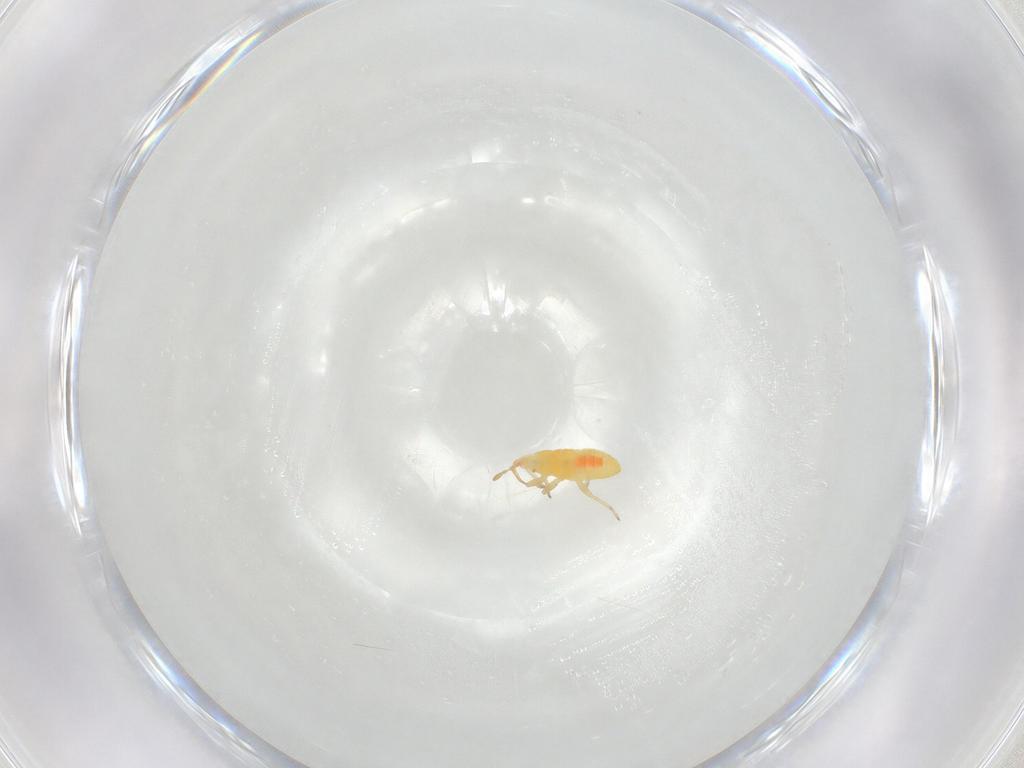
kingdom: Animalia
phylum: Arthropoda
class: Insecta
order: Hemiptera
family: Anthocoridae
